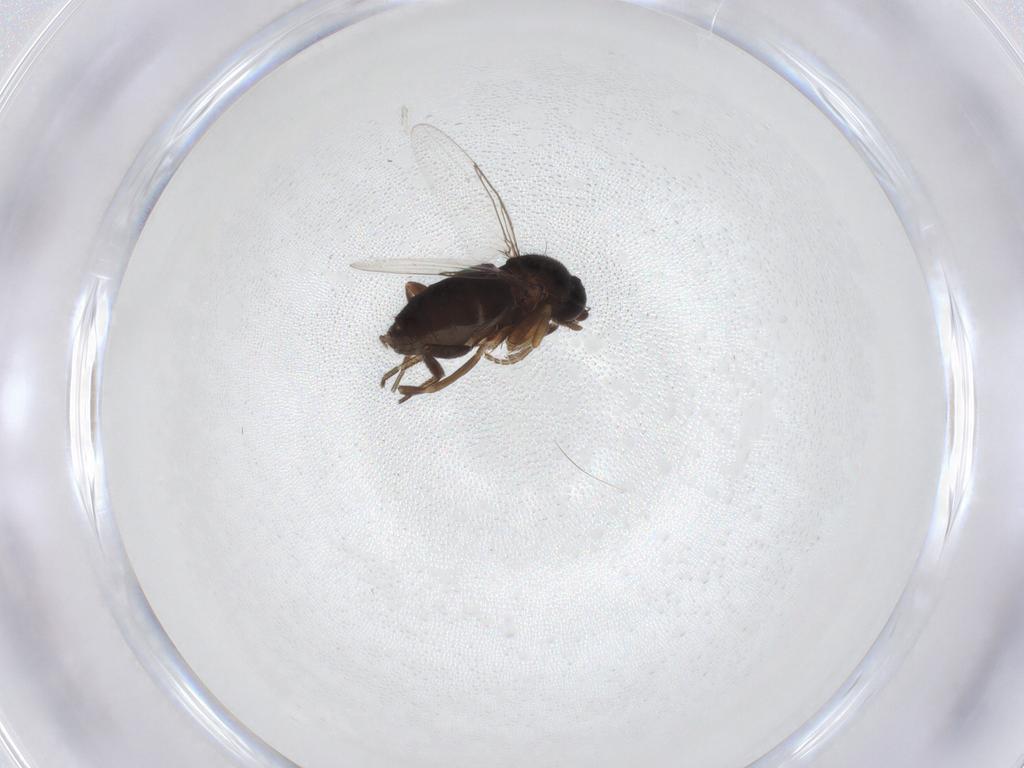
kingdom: Animalia
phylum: Arthropoda
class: Insecta
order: Diptera
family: Phoridae
